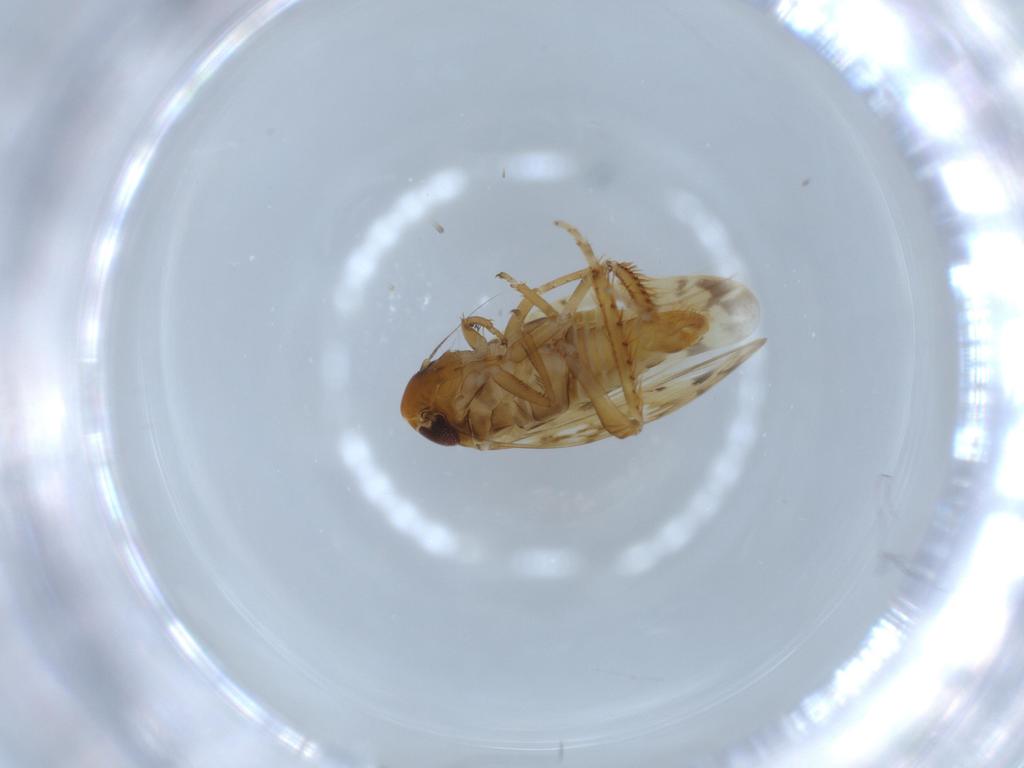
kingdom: Animalia
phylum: Arthropoda
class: Insecta
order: Hemiptera
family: Cicadellidae
